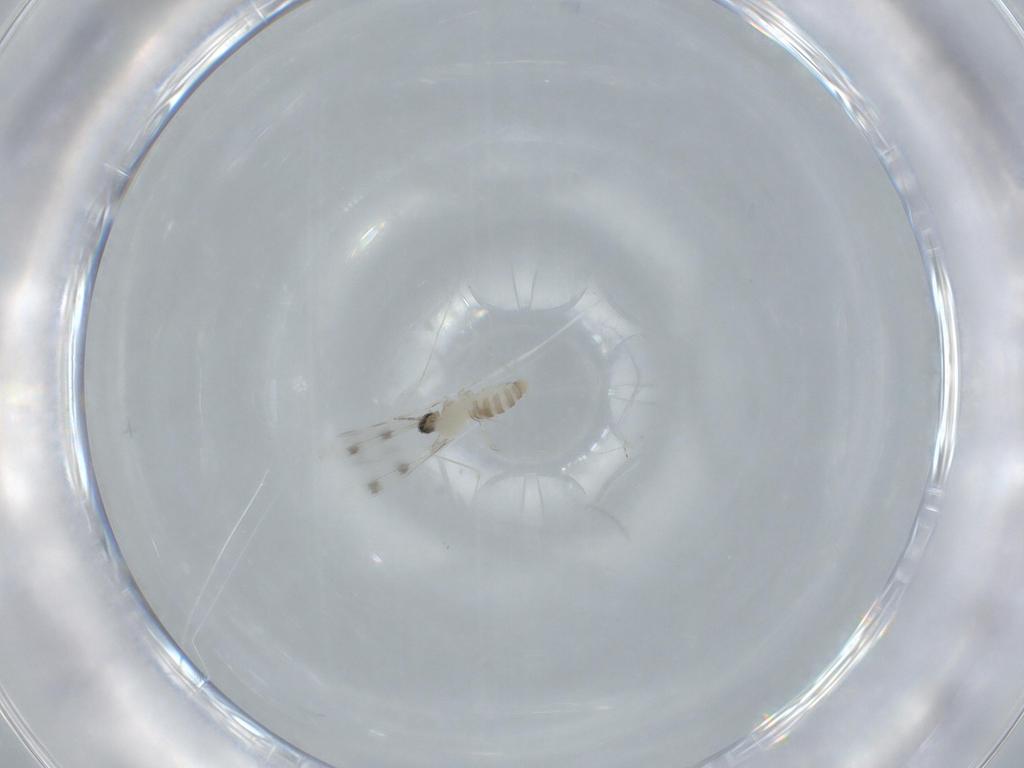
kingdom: Animalia
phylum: Arthropoda
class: Insecta
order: Diptera
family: Cecidomyiidae
